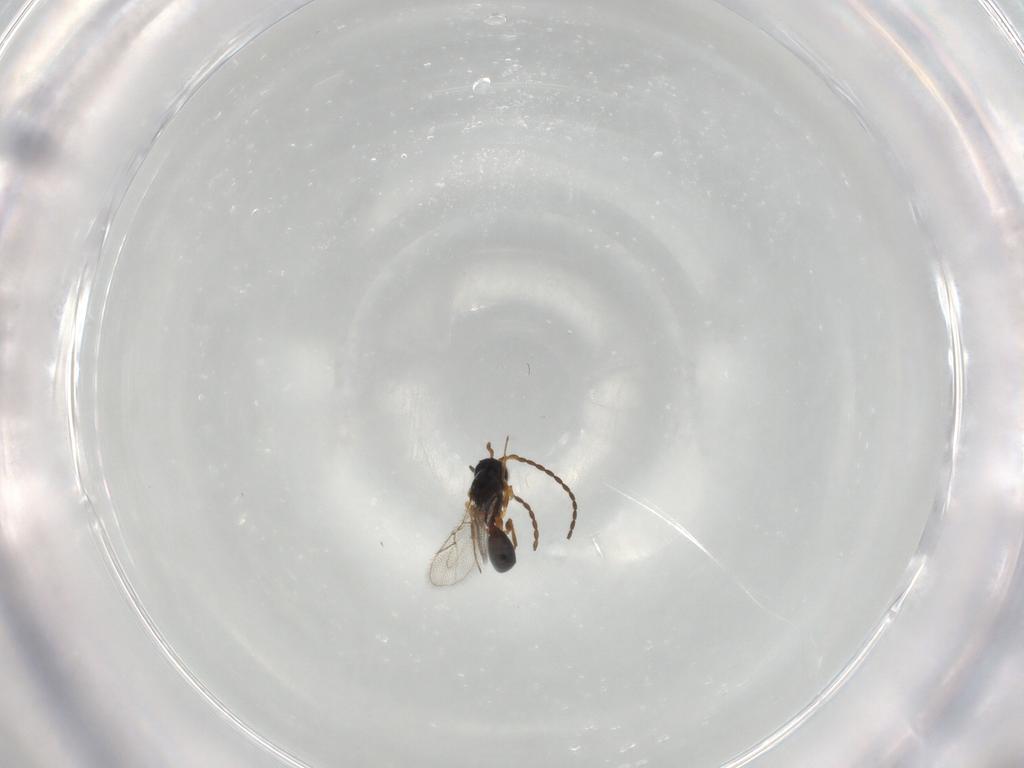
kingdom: Animalia
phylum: Arthropoda
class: Insecta
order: Hymenoptera
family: Figitidae
